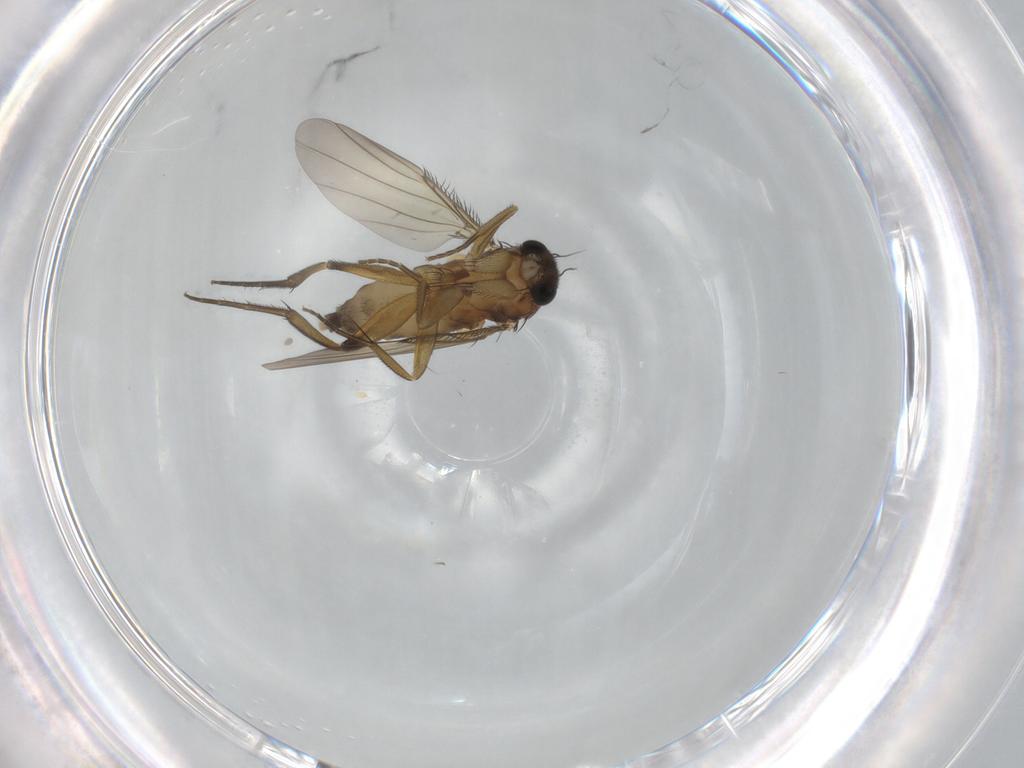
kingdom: Animalia
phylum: Arthropoda
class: Insecta
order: Diptera
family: Phoridae
